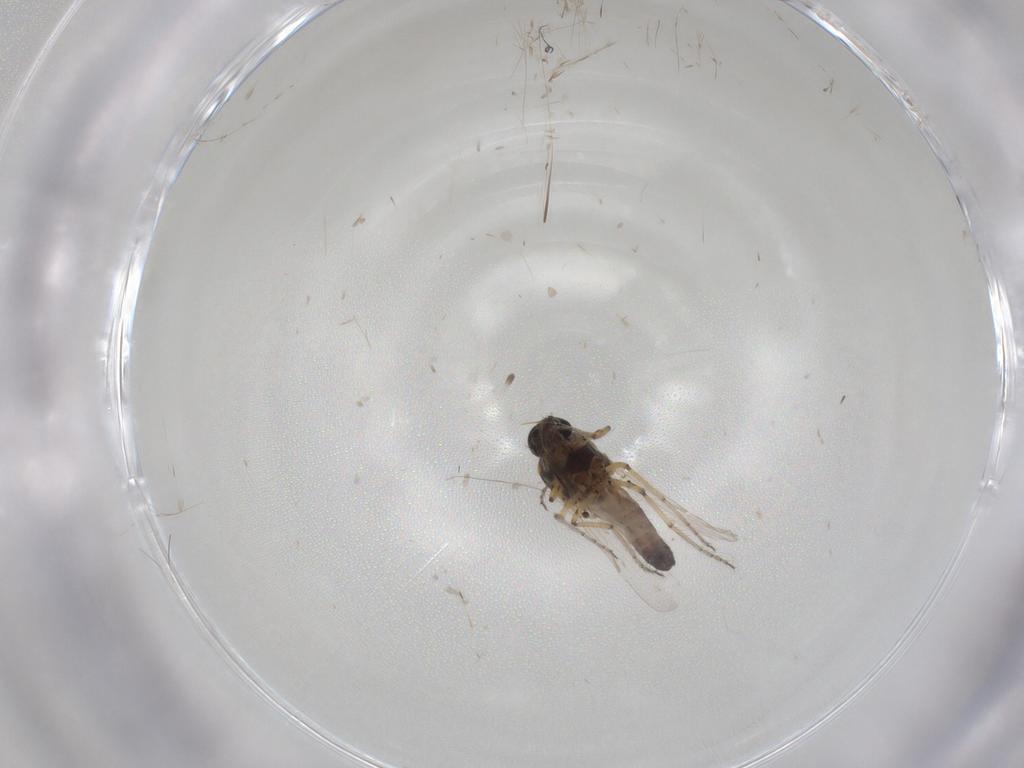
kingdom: Animalia
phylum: Arthropoda
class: Insecta
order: Diptera
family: Ceratopogonidae
